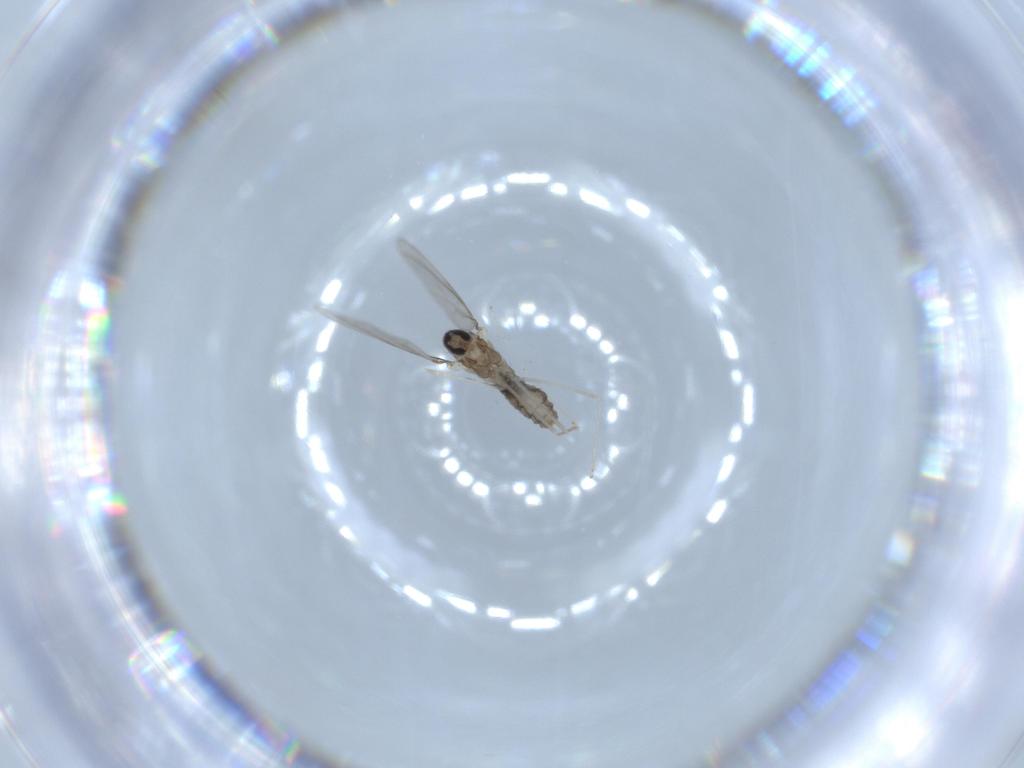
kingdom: Animalia
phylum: Arthropoda
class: Insecta
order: Diptera
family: Cecidomyiidae
